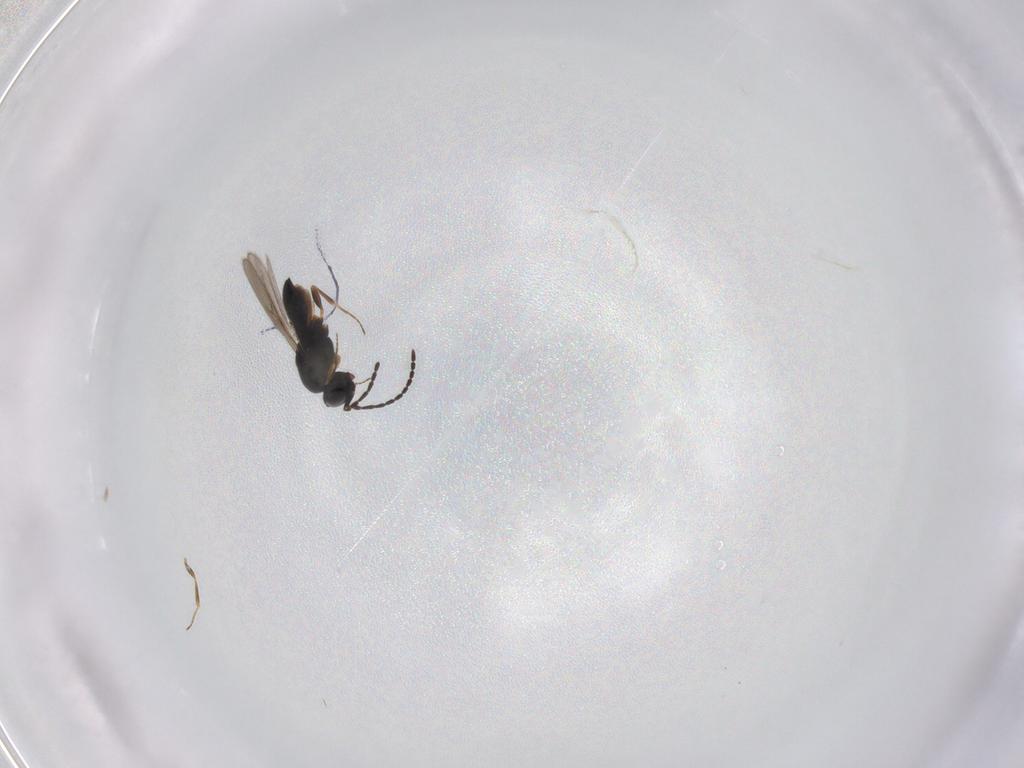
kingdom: Animalia
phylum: Arthropoda
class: Insecta
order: Hymenoptera
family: Scelionidae
